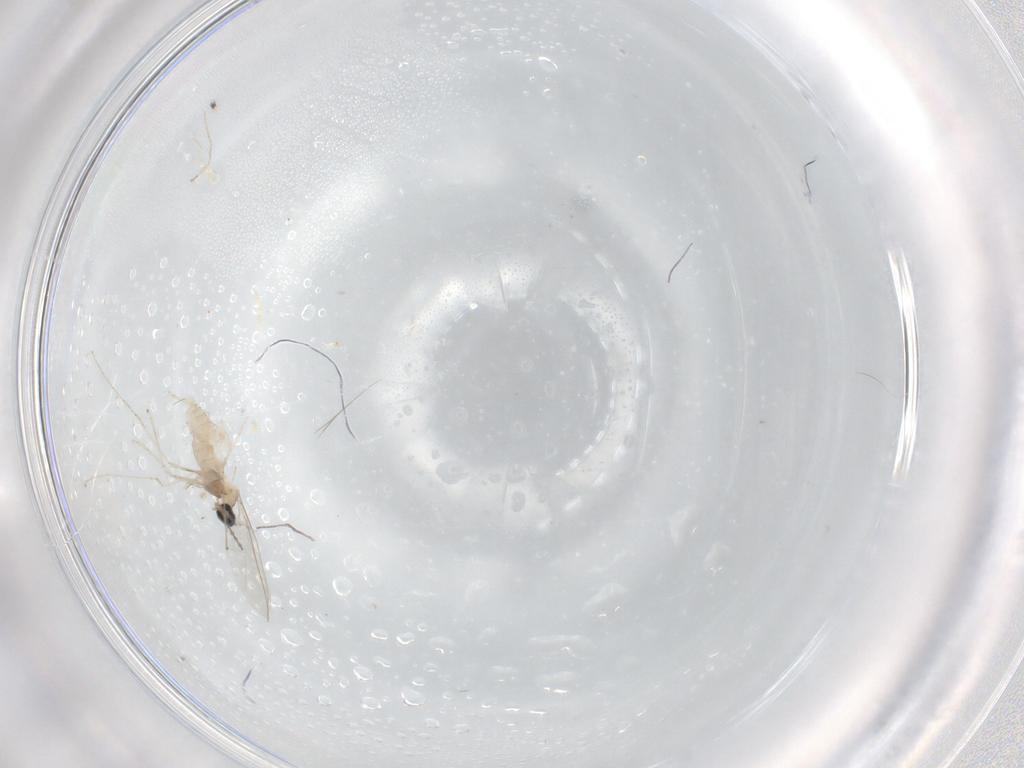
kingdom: Animalia
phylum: Arthropoda
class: Insecta
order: Diptera
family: Cecidomyiidae
